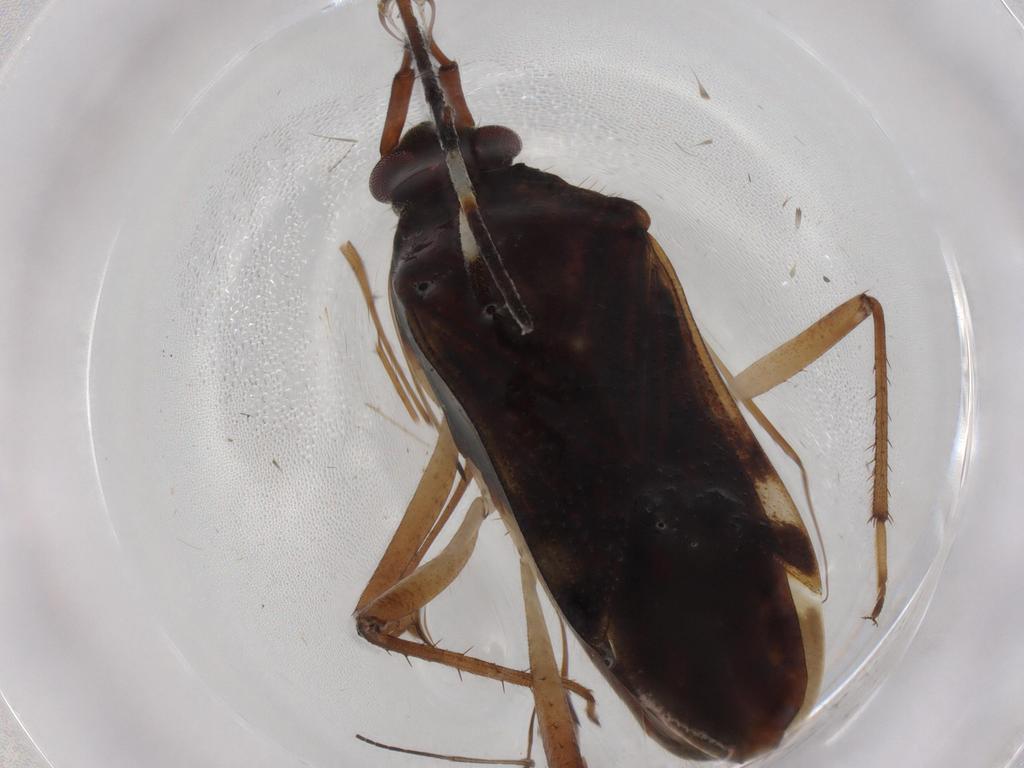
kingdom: Animalia
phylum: Arthropoda
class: Insecta
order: Hemiptera
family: Rhyparochromidae
